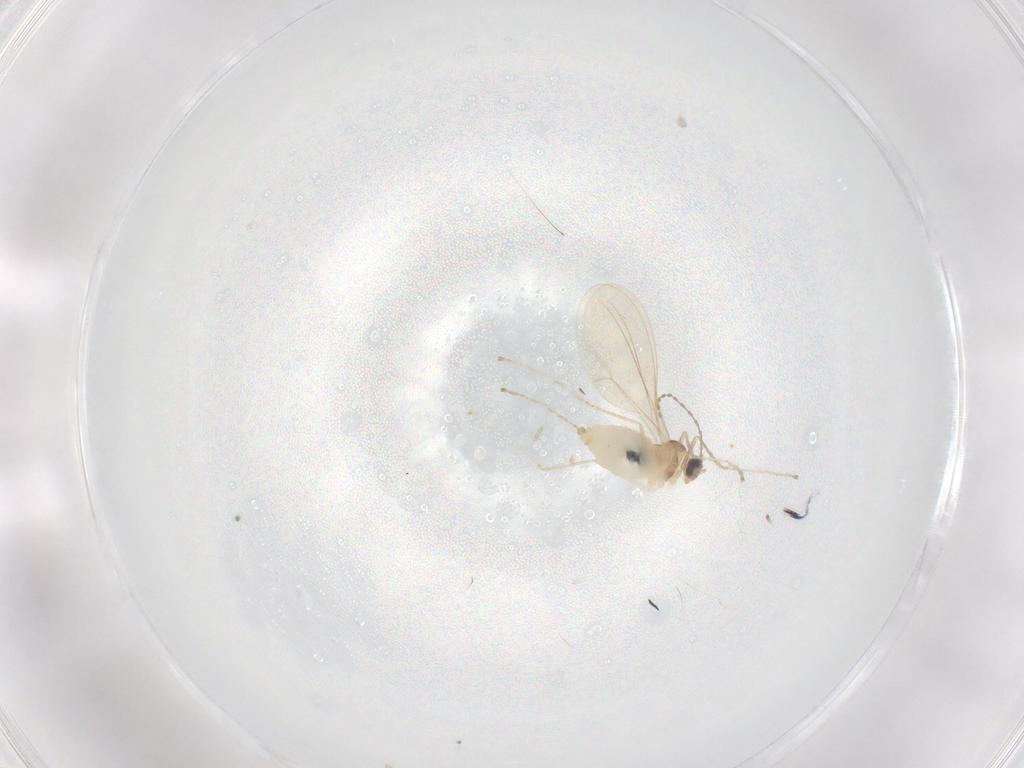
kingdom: Animalia
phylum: Arthropoda
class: Insecta
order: Diptera
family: Cecidomyiidae
